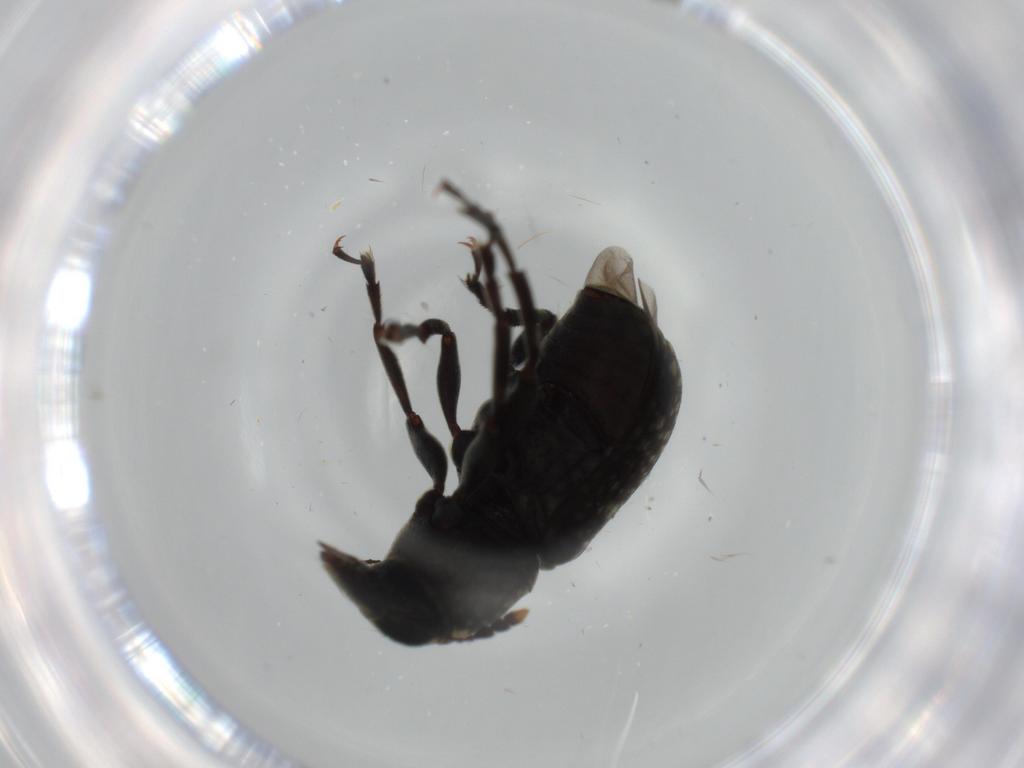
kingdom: Animalia
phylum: Arthropoda
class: Insecta
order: Coleoptera
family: Anthribidae
